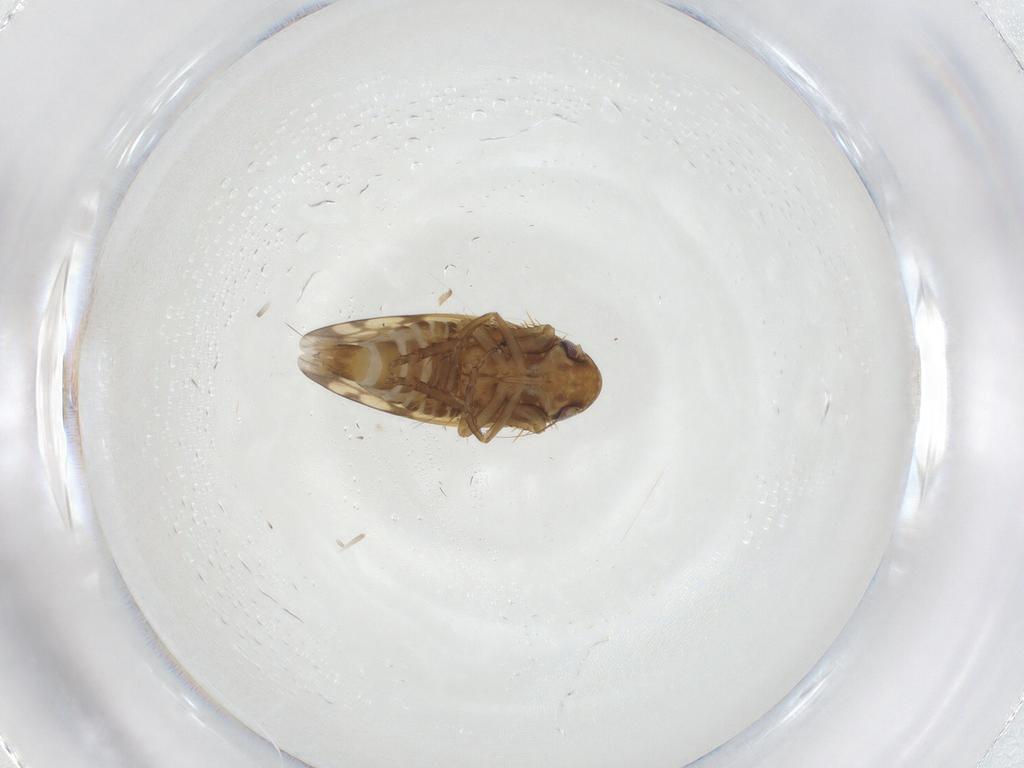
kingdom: Animalia
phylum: Arthropoda
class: Insecta
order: Hemiptera
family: Cicadellidae
